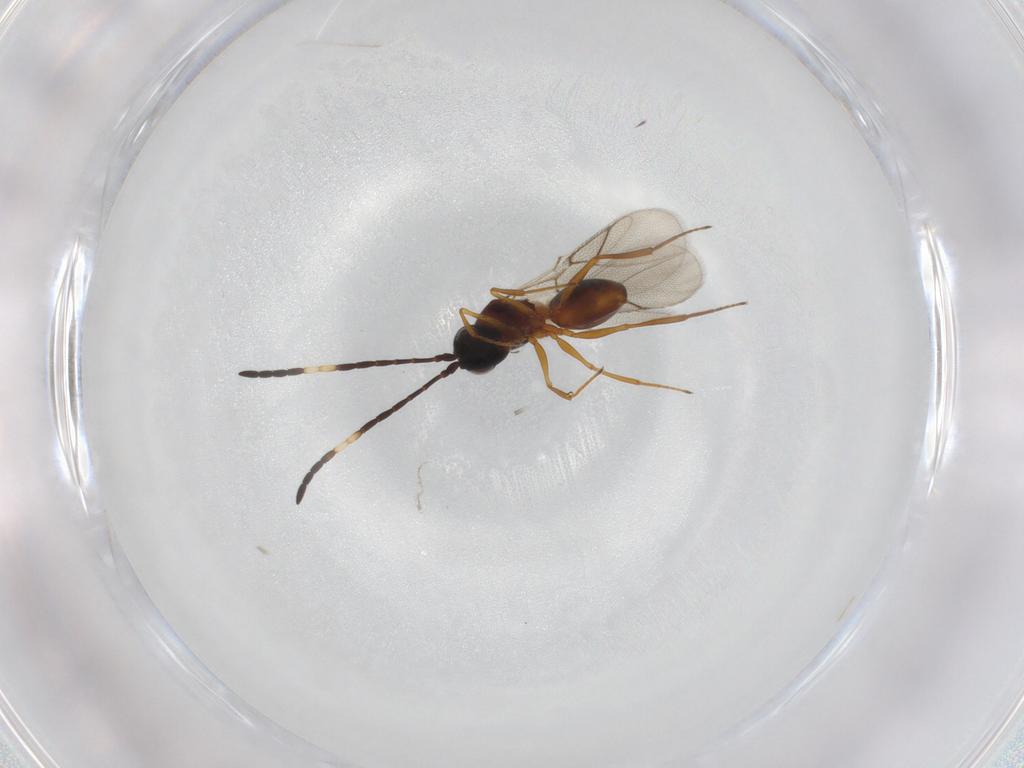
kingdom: Animalia
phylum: Arthropoda
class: Insecta
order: Hymenoptera
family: Figitidae
